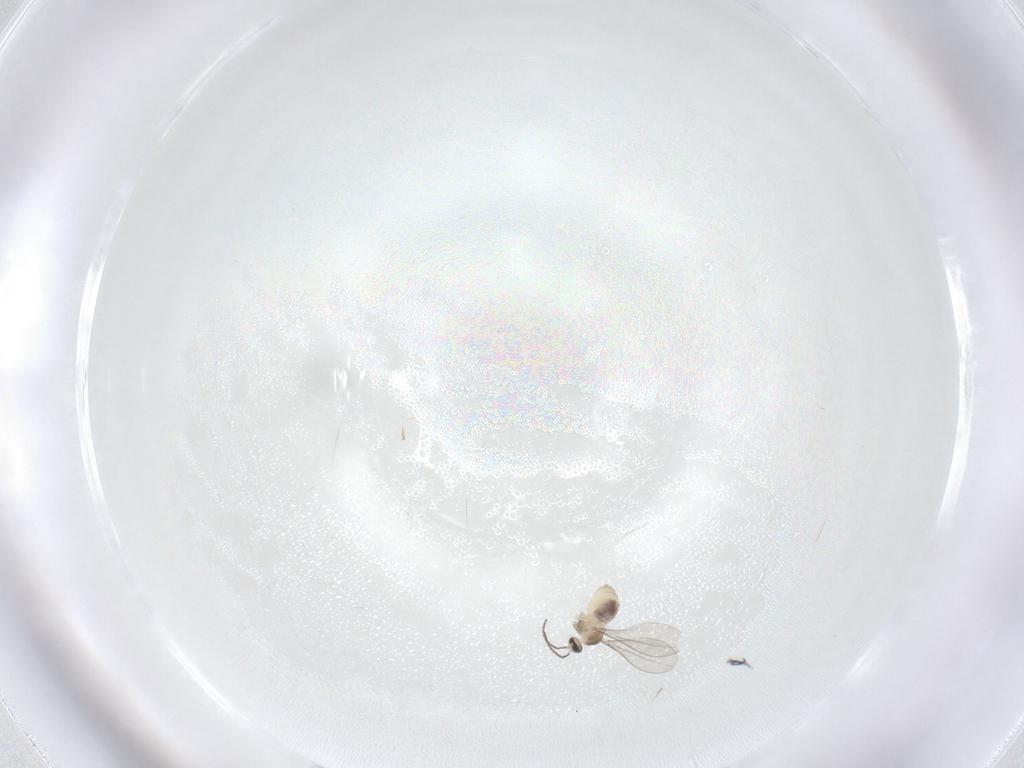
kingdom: Animalia
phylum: Arthropoda
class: Insecta
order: Diptera
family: Cecidomyiidae
